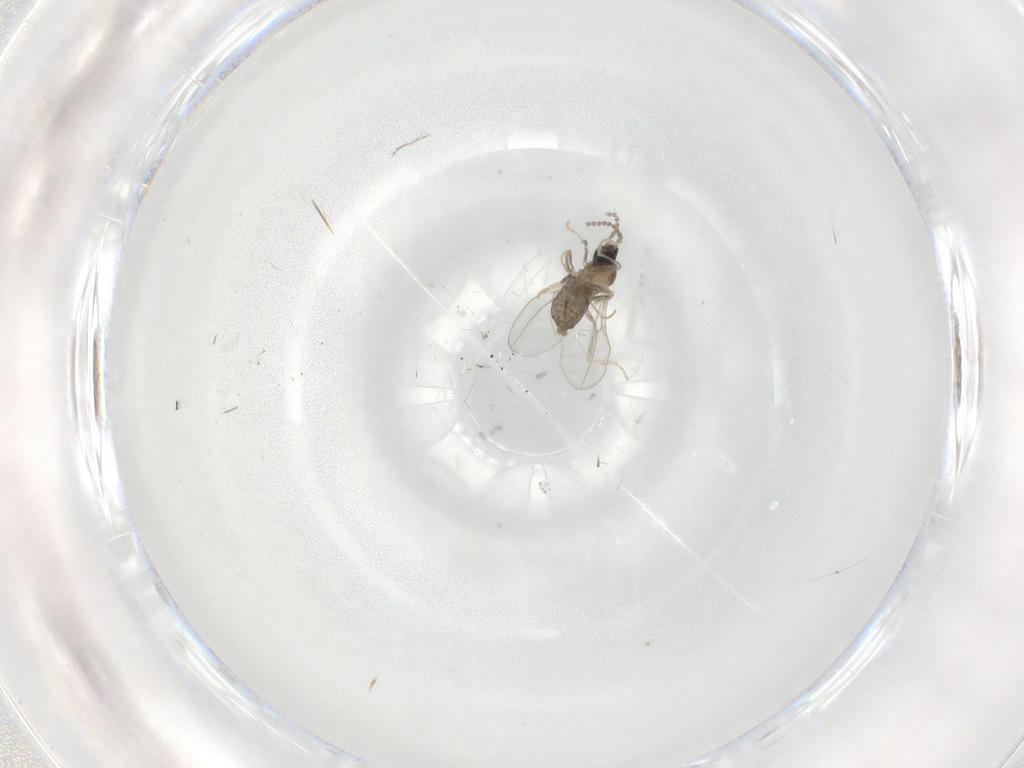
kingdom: Animalia
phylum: Arthropoda
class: Insecta
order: Diptera
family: Cecidomyiidae
